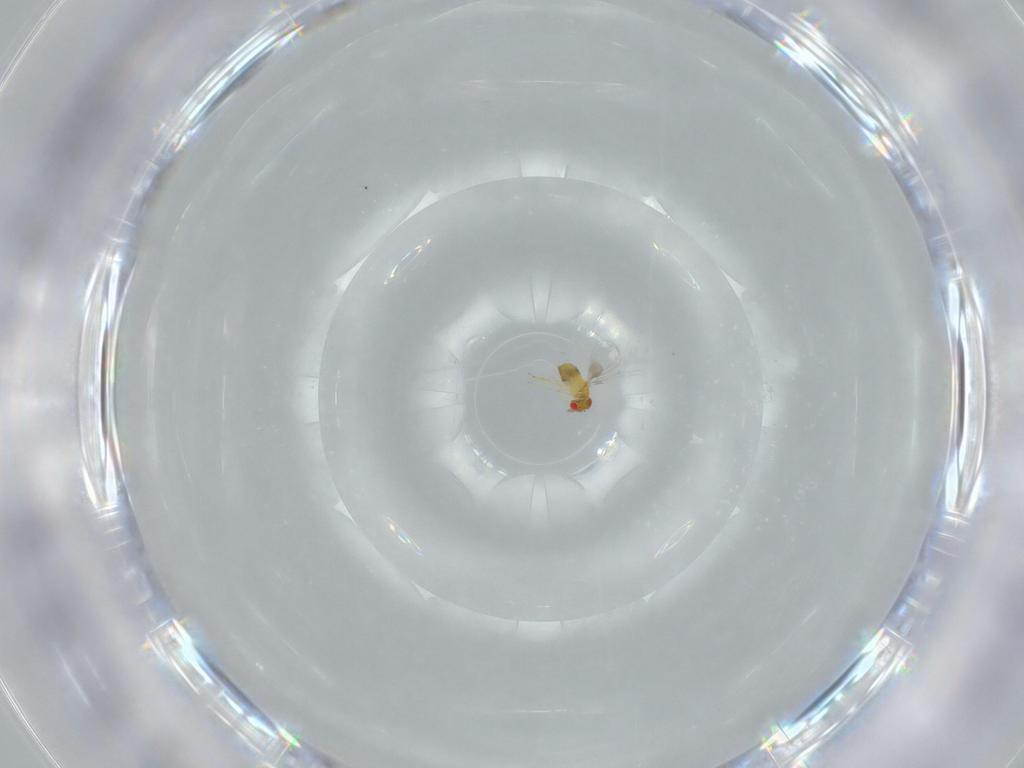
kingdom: Animalia
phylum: Arthropoda
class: Insecta
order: Hymenoptera
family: Trichogrammatidae
